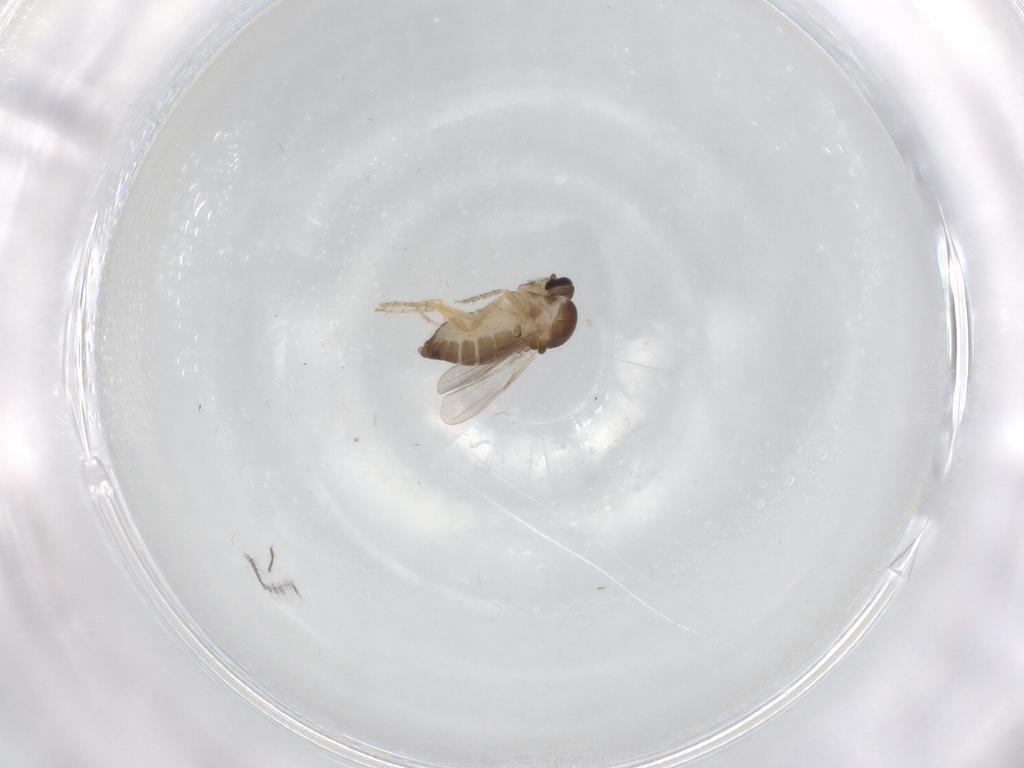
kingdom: Animalia
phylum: Arthropoda
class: Insecta
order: Diptera
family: Ceratopogonidae
